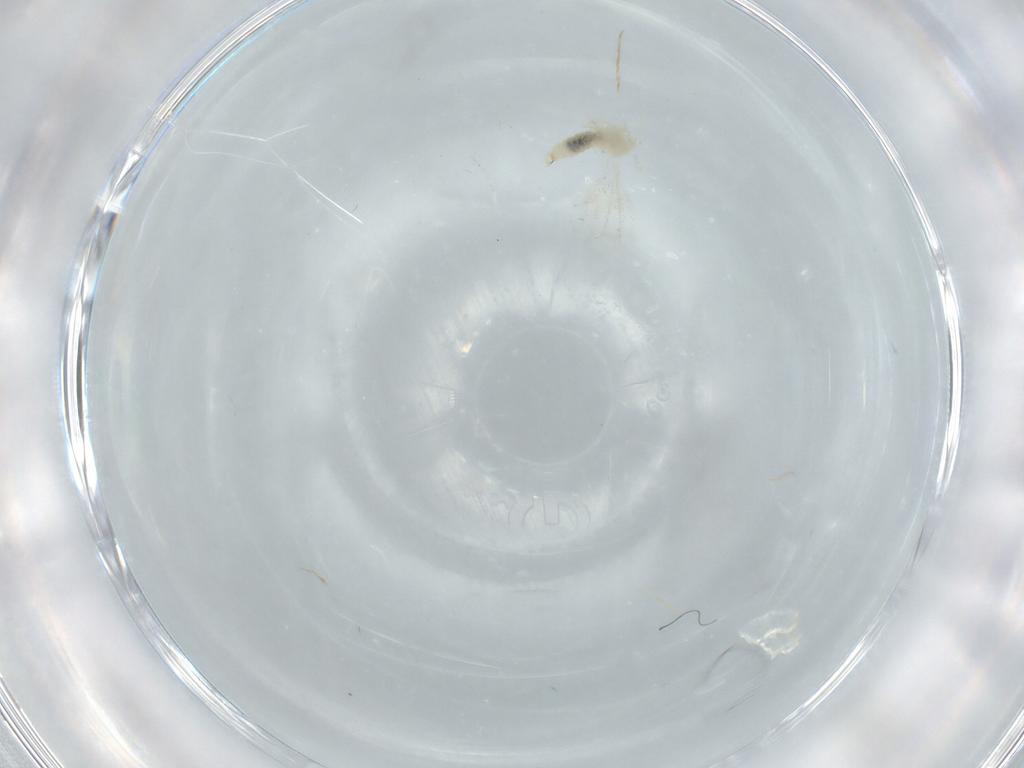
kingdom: Animalia
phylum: Arthropoda
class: Insecta
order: Diptera
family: Cecidomyiidae
